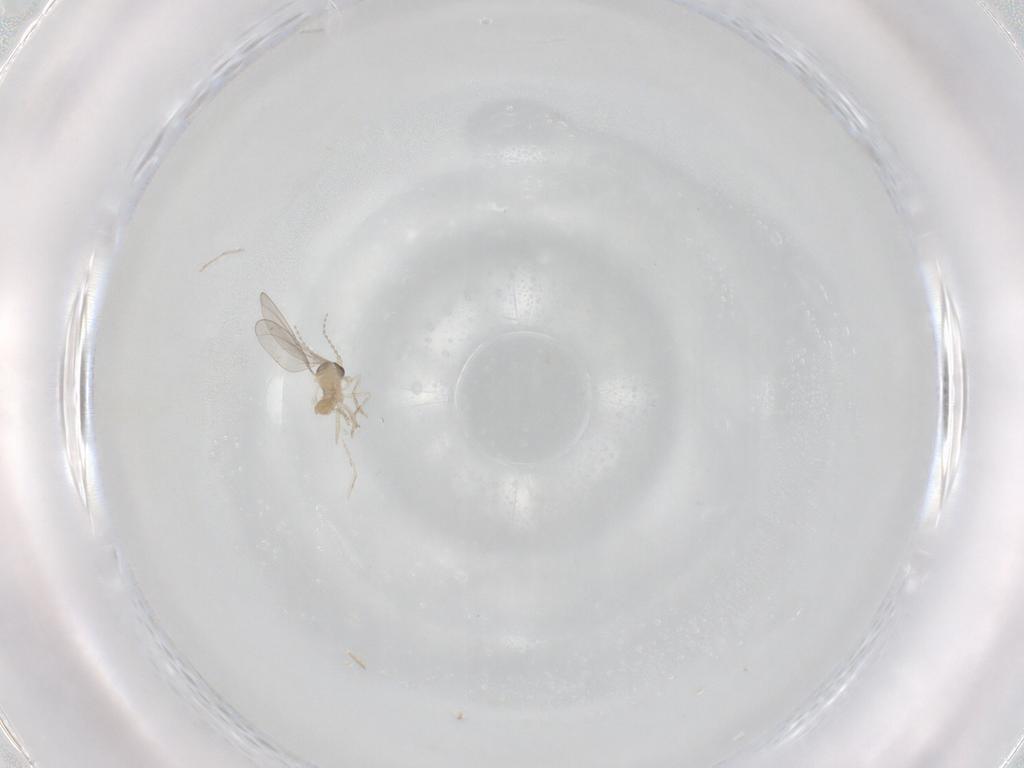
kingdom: Animalia
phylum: Arthropoda
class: Insecta
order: Diptera
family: Cecidomyiidae
